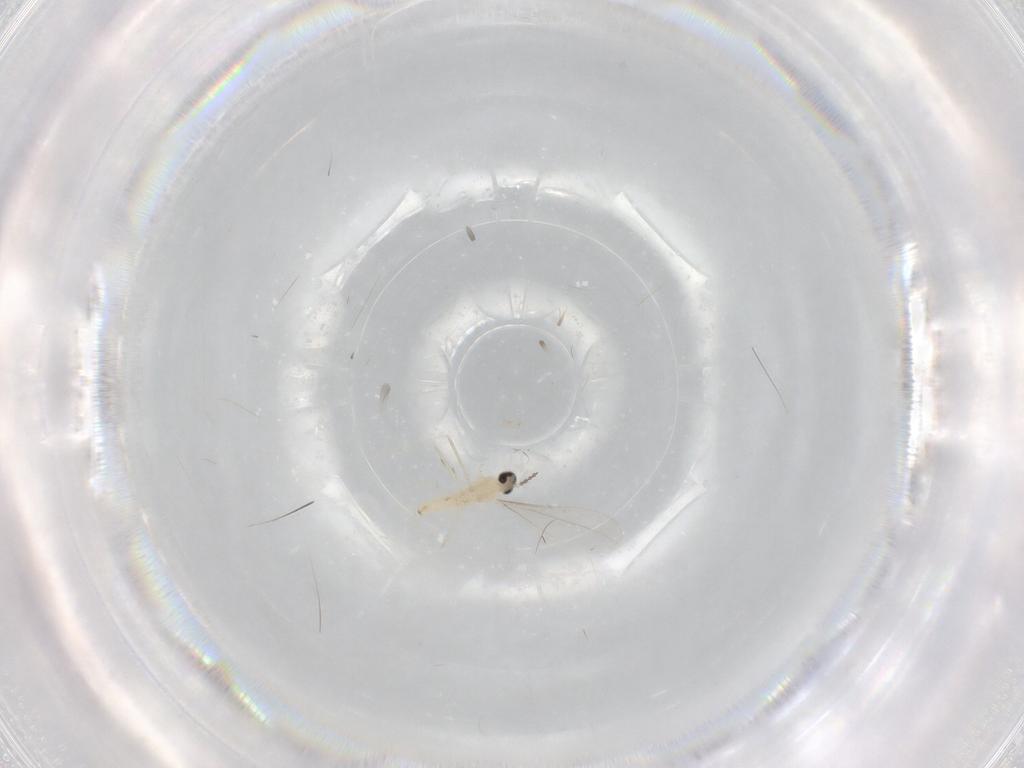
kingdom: Animalia
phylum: Arthropoda
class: Insecta
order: Diptera
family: Cecidomyiidae
